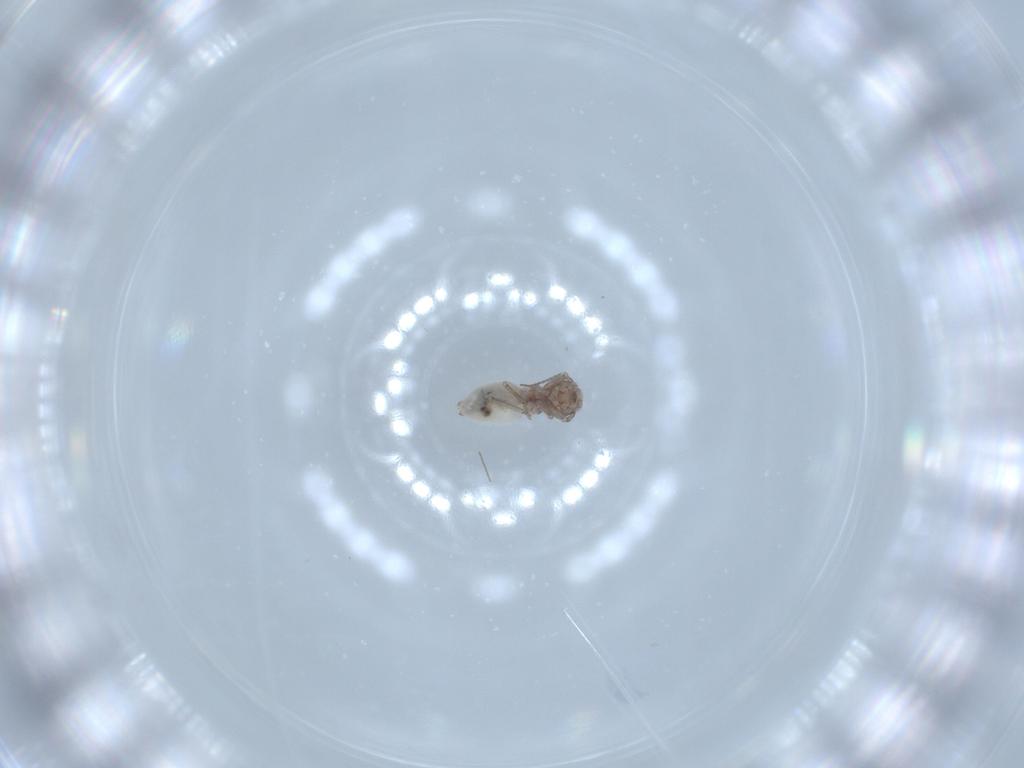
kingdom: Animalia
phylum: Arthropoda
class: Insecta
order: Psocodea
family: Lepidopsocidae
